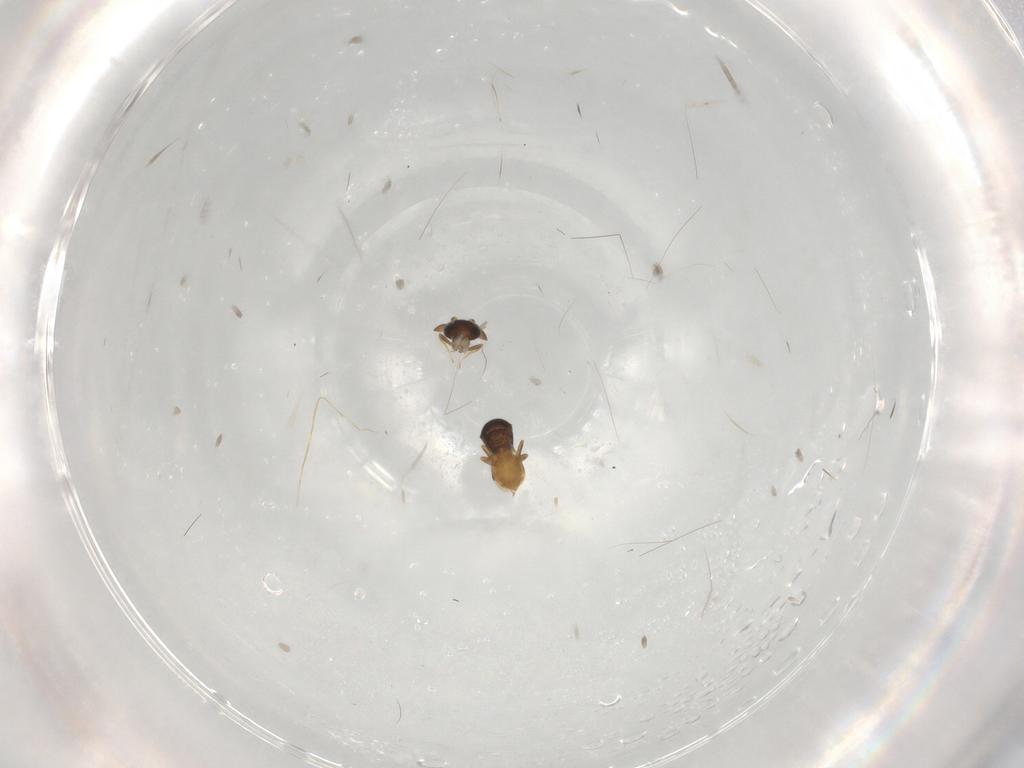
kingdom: Animalia
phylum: Arthropoda
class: Insecta
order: Hymenoptera
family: Scelionidae
